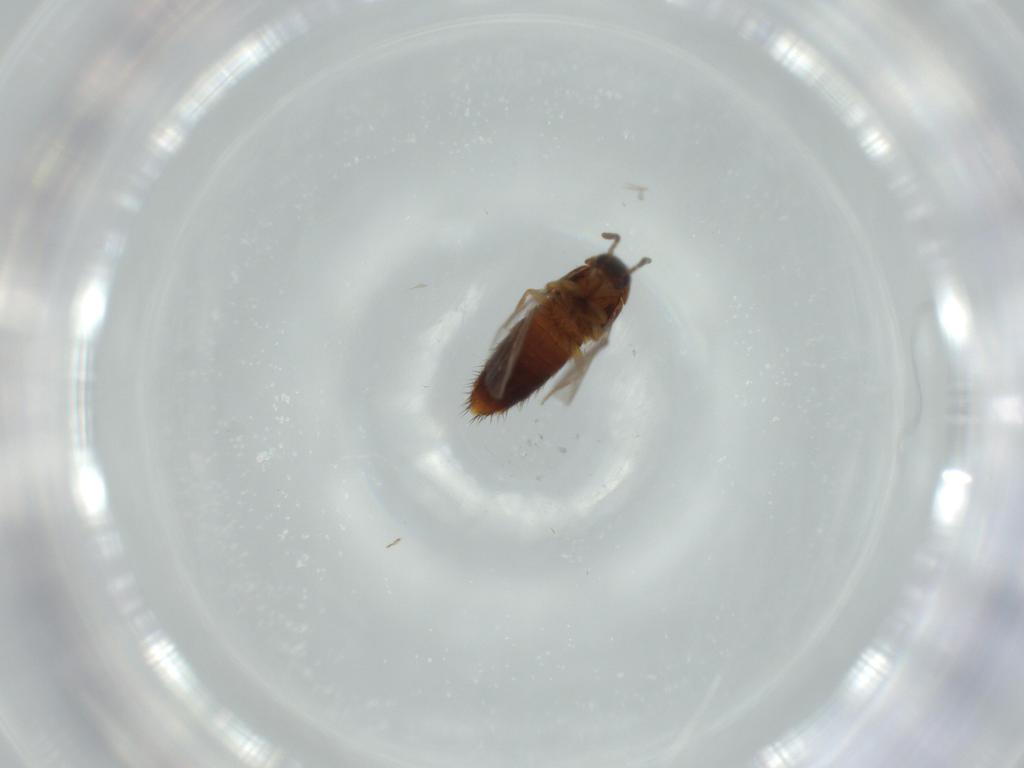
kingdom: Animalia
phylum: Arthropoda
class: Insecta
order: Coleoptera
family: Staphylinidae
